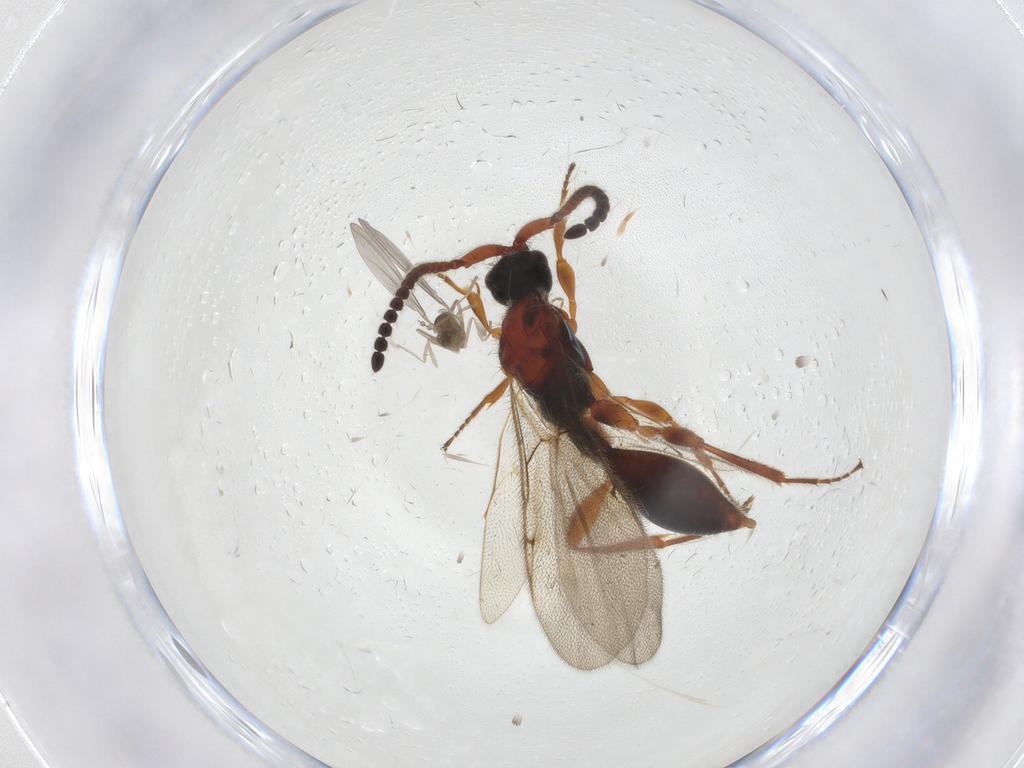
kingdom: Animalia
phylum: Arthropoda
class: Insecta
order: Diptera
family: Cecidomyiidae
